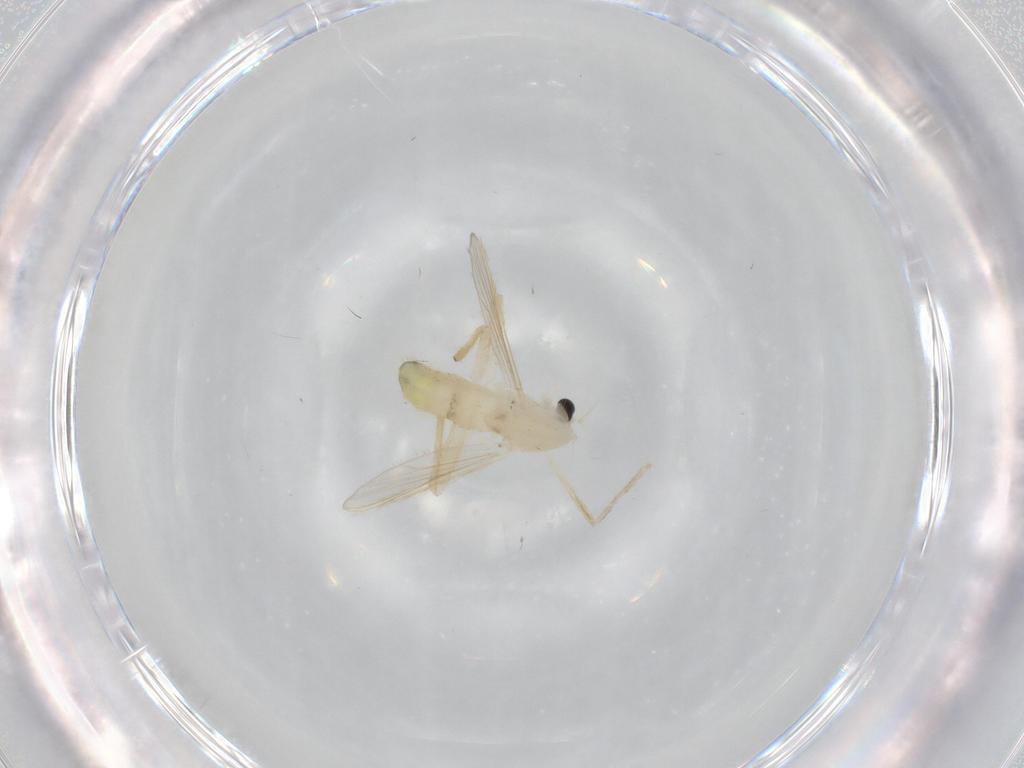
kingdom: Animalia
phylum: Arthropoda
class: Insecta
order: Diptera
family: Chironomidae
